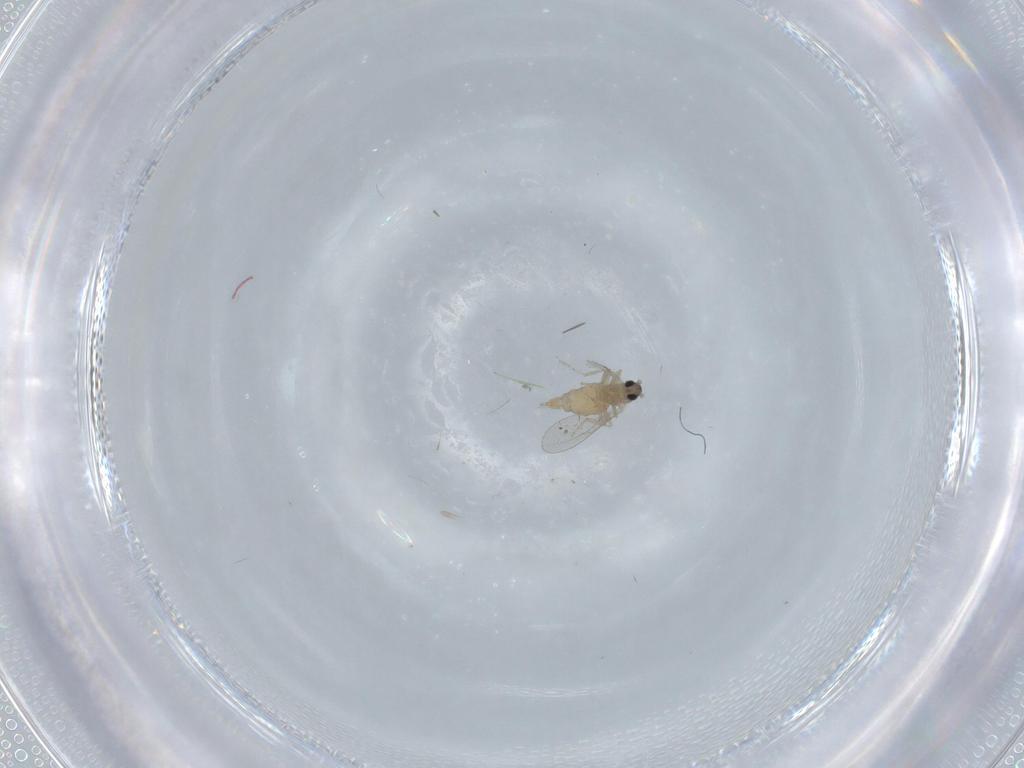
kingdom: Animalia
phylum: Arthropoda
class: Insecta
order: Diptera
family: Cecidomyiidae
